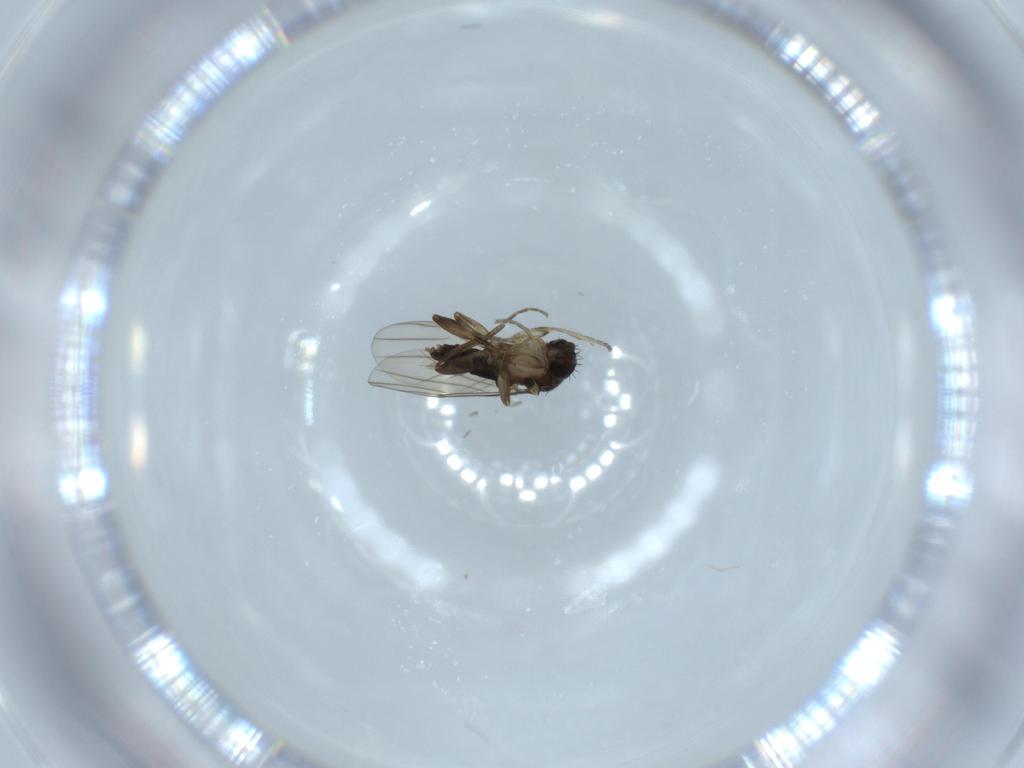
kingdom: Animalia
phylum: Arthropoda
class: Insecta
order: Diptera
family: Phoridae
